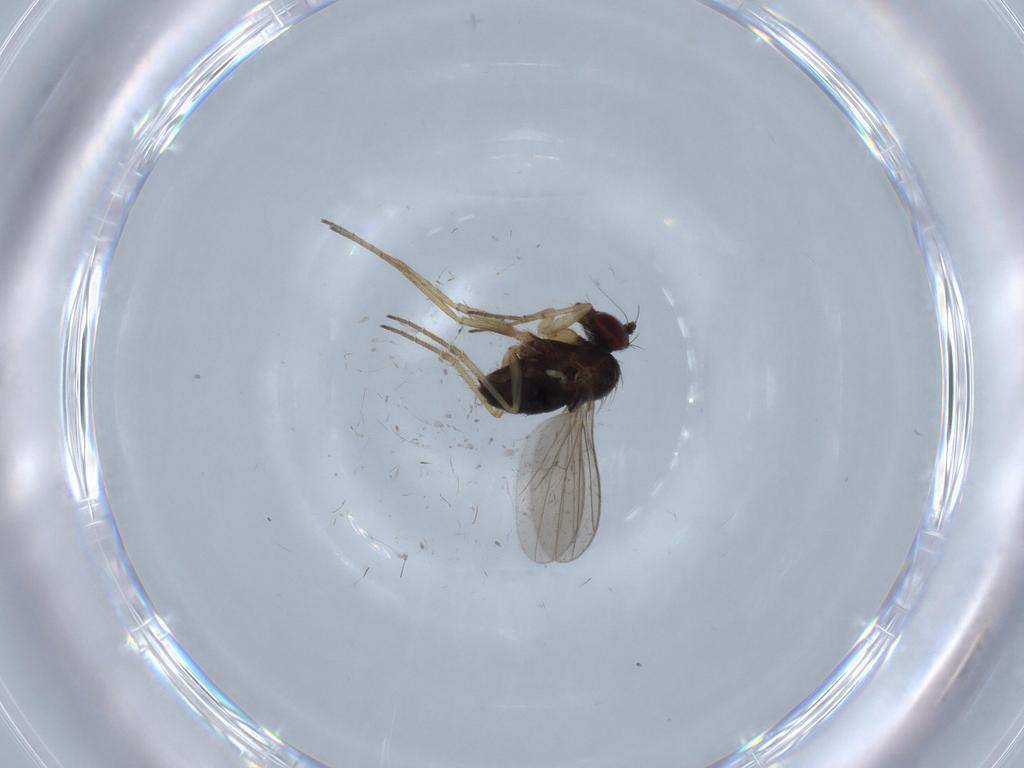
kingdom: Animalia
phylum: Arthropoda
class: Insecta
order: Diptera
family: Dolichopodidae
